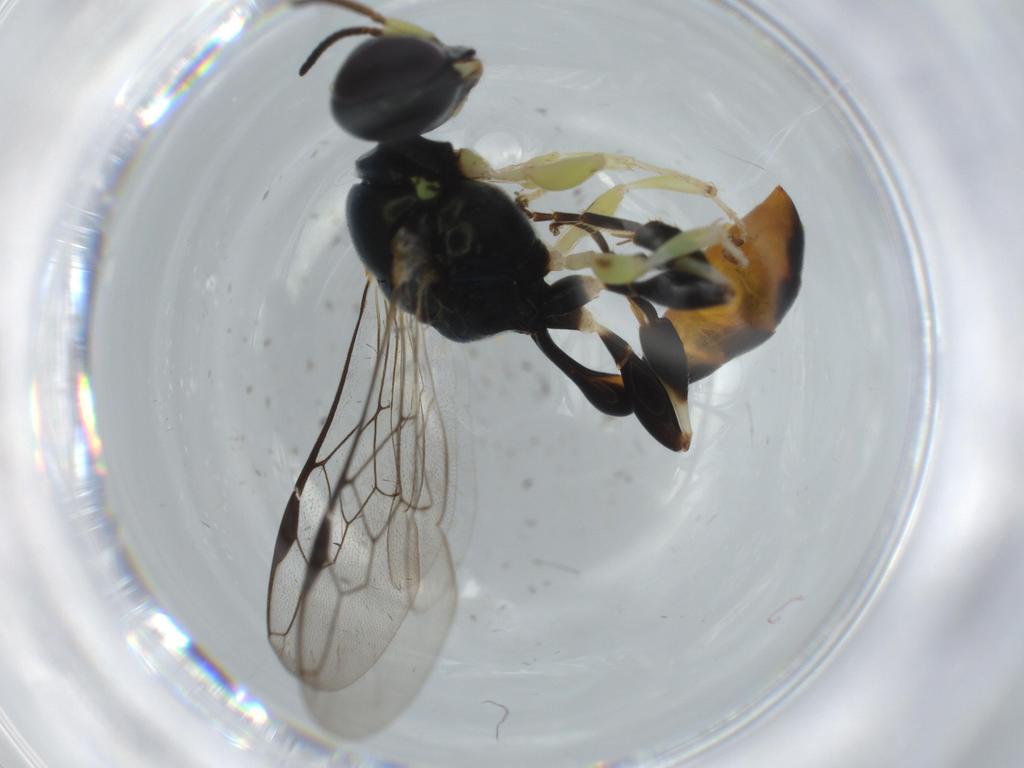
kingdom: Animalia
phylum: Arthropoda
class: Insecta
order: Hymenoptera
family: Crabronidae
